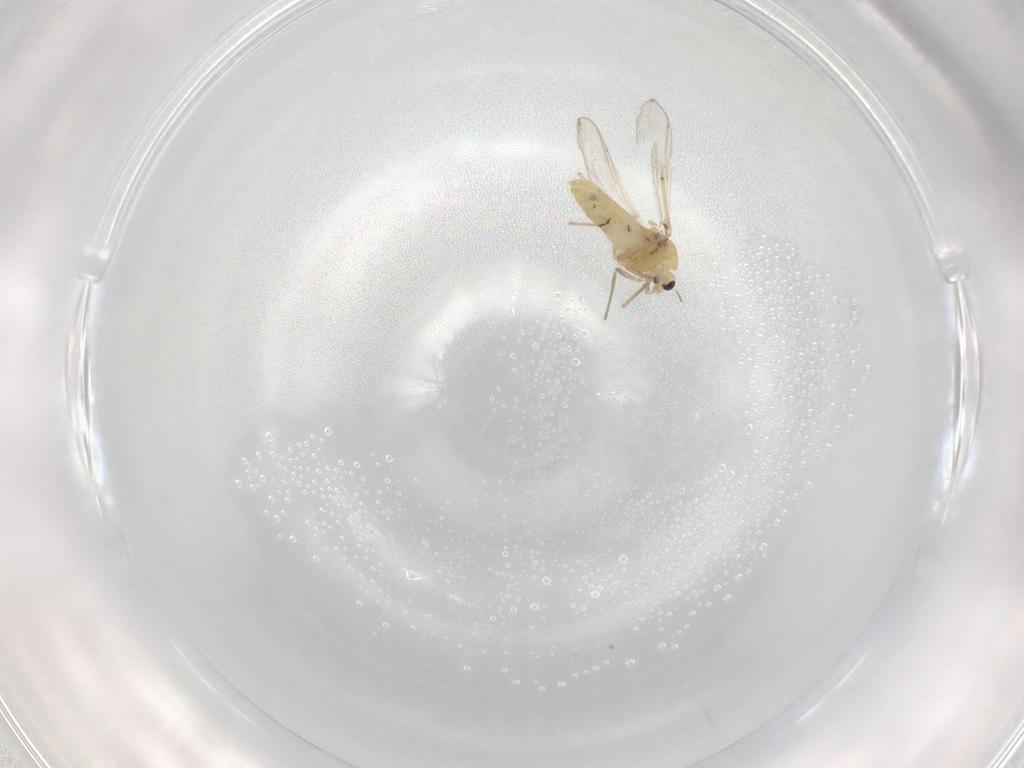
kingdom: Animalia
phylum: Arthropoda
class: Insecta
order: Diptera
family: Chironomidae
